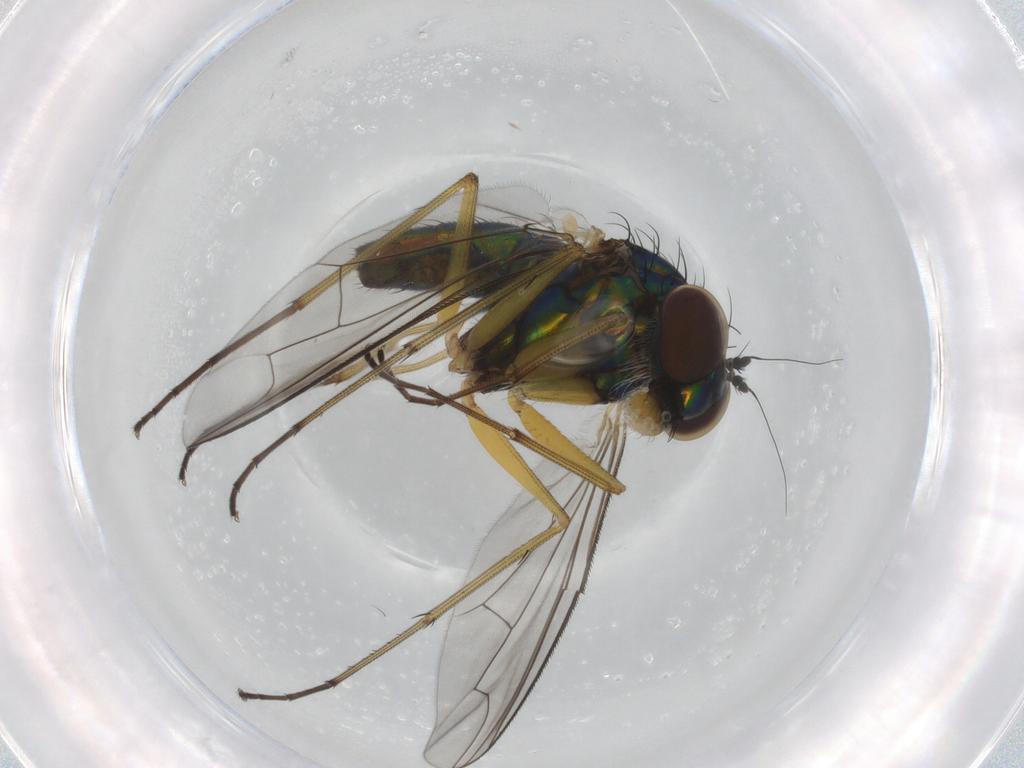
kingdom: Animalia
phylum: Arthropoda
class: Insecta
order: Diptera
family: Dolichopodidae
